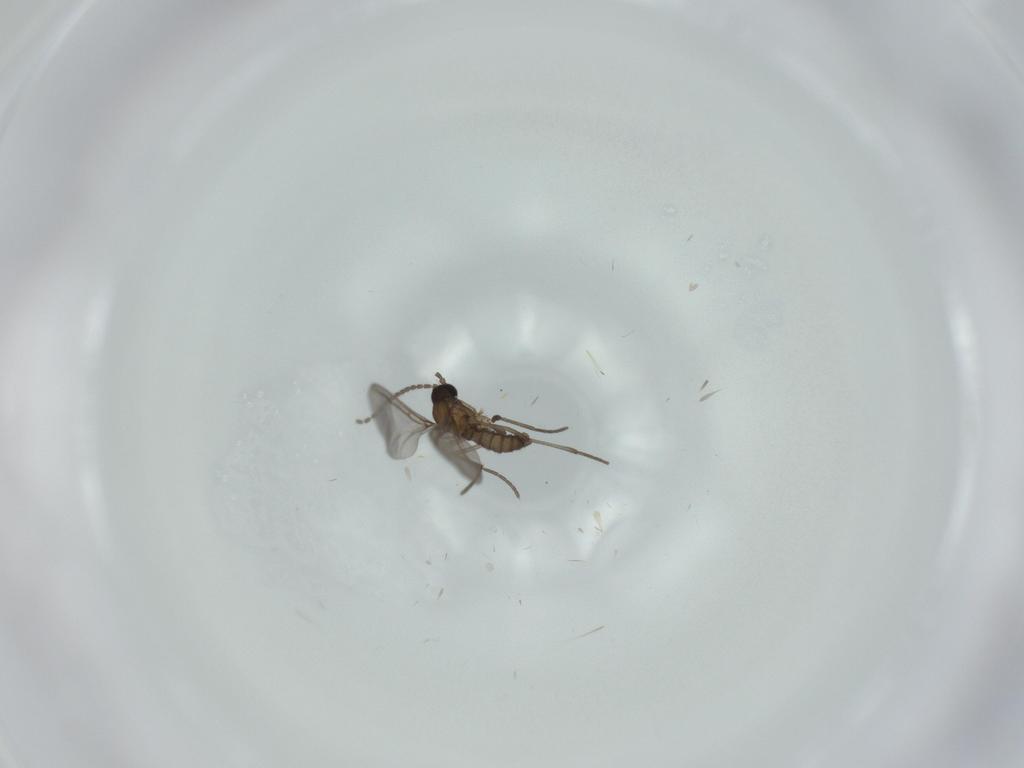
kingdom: Animalia
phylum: Arthropoda
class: Insecta
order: Diptera
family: Sciaridae
